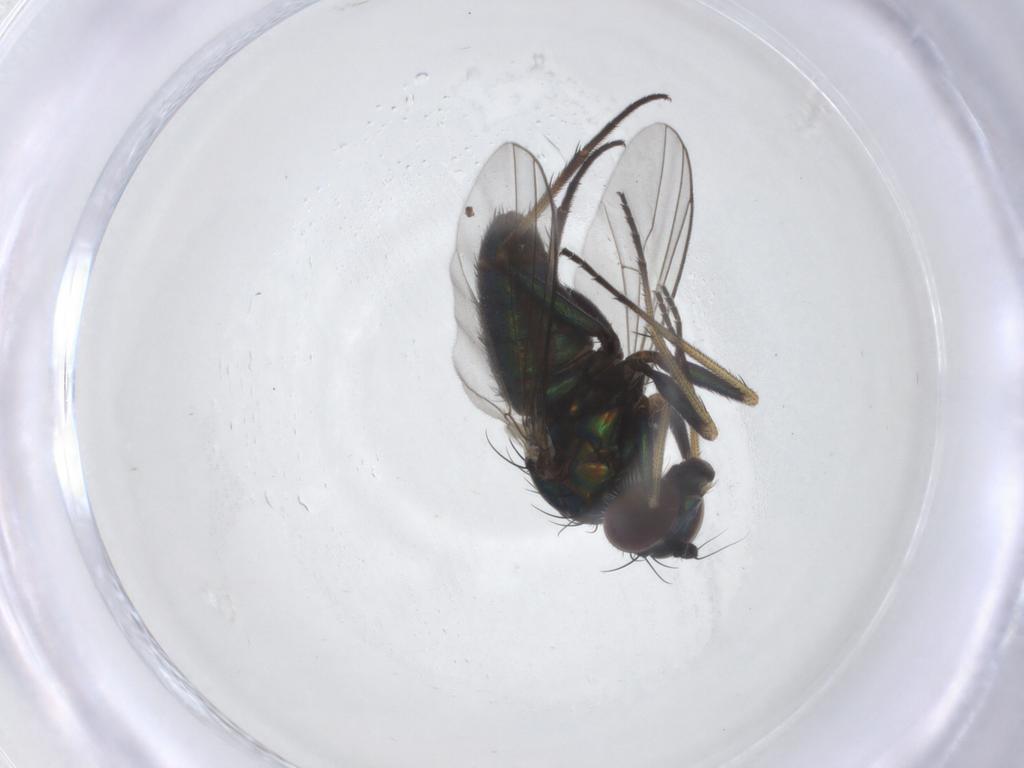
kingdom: Animalia
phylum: Arthropoda
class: Insecta
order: Diptera
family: Dolichopodidae
